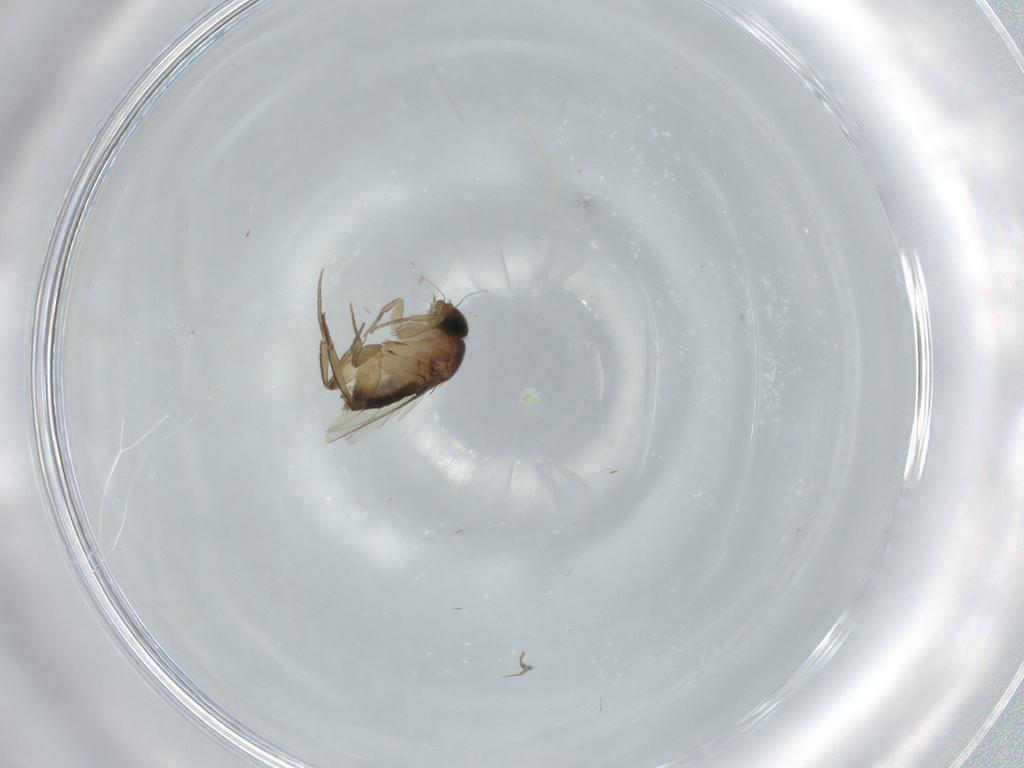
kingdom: Animalia
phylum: Arthropoda
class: Insecta
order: Diptera
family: Phoridae
